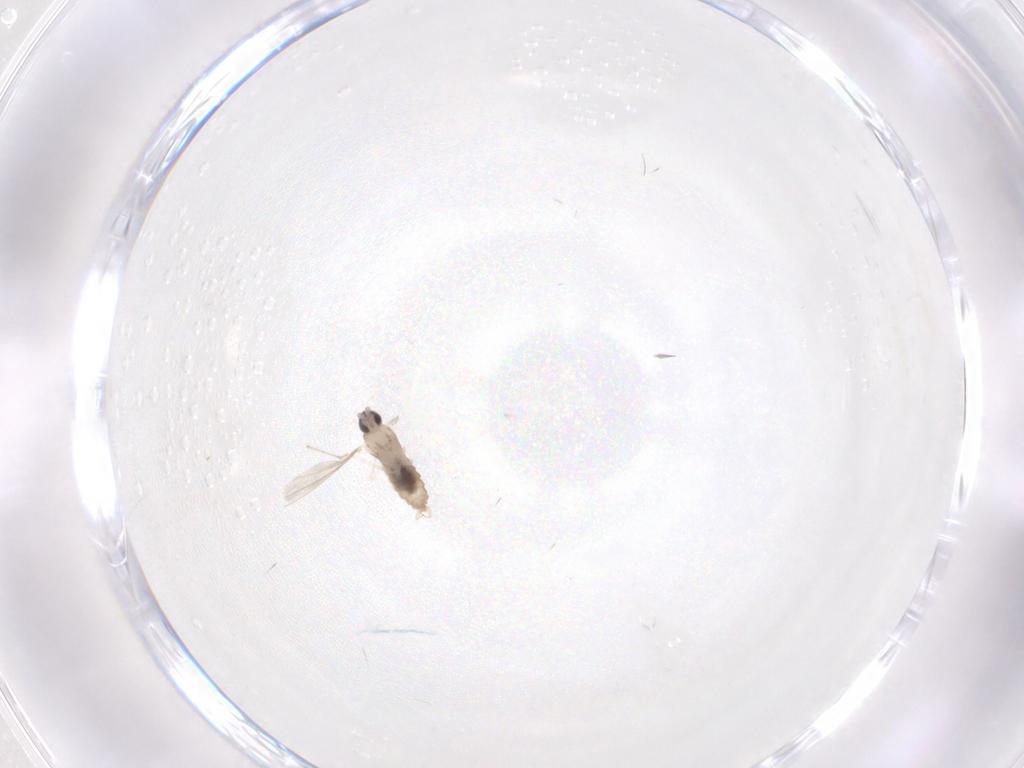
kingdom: Animalia
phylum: Arthropoda
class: Insecta
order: Diptera
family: Cecidomyiidae
